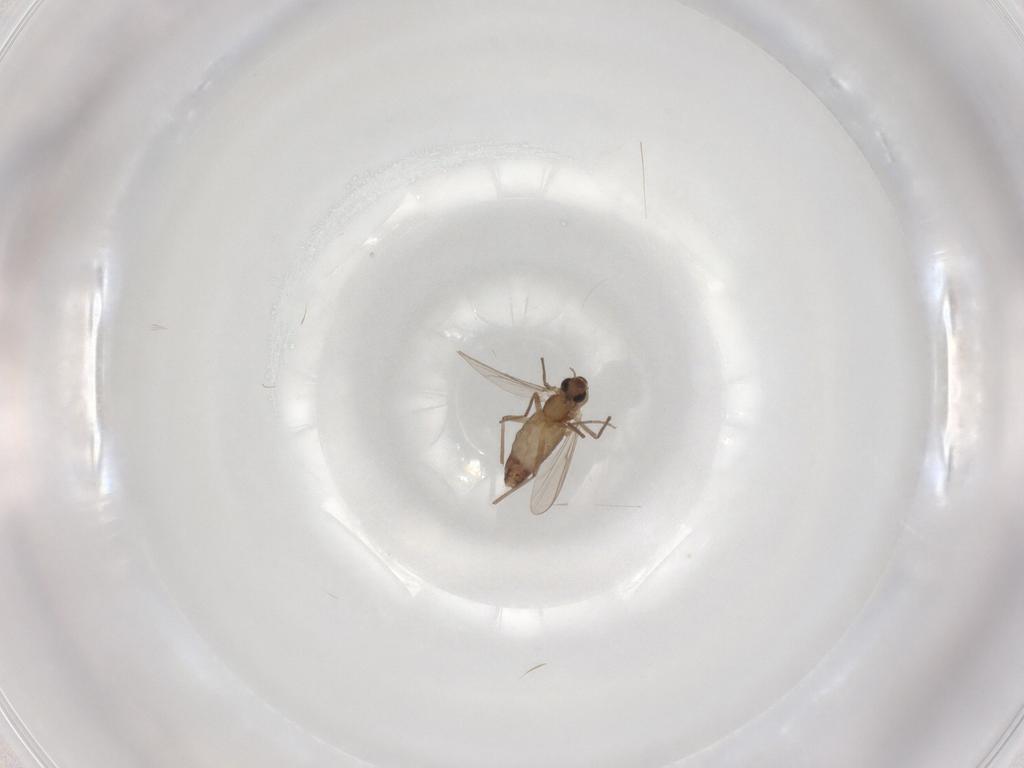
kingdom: Animalia
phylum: Arthropoda
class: Insecta
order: Diptera
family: Chironomidae
